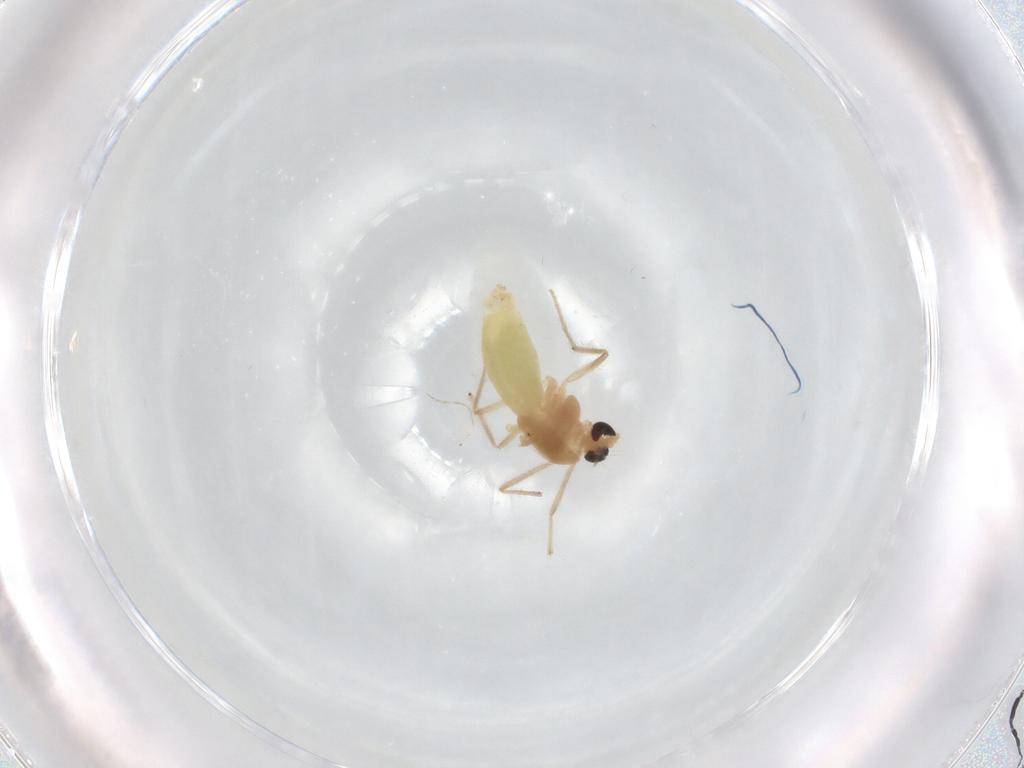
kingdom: Animalia
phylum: Arthropoda
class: Insecta
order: Diptera
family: Chironomidae
